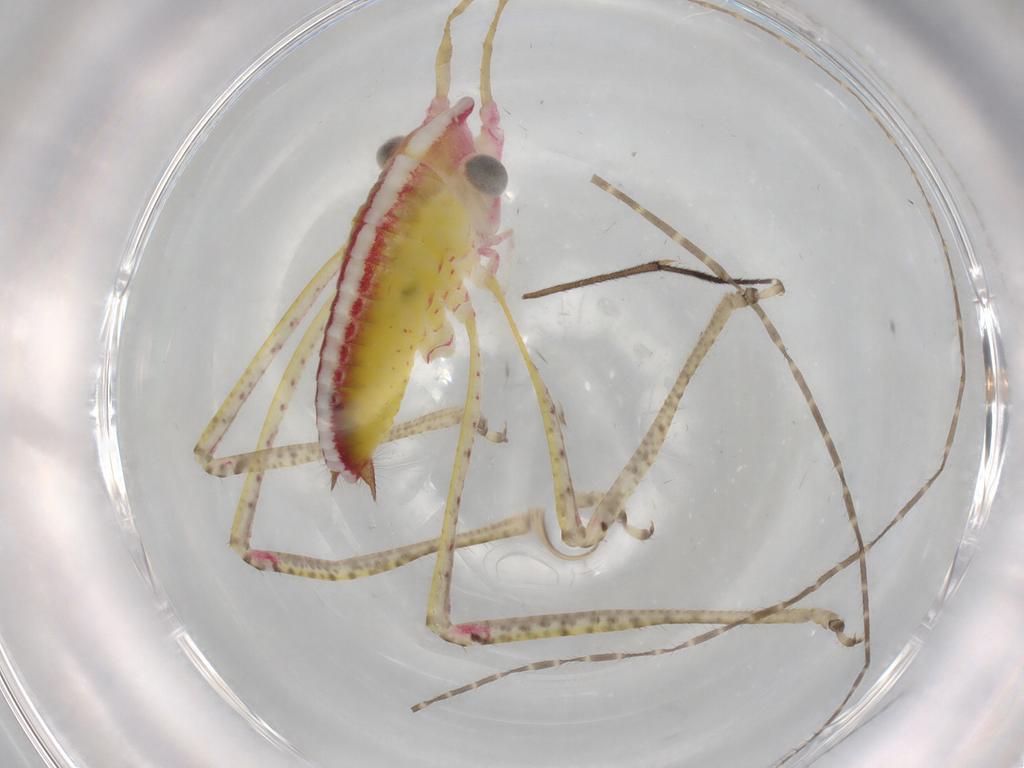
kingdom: Animalia
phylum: Arthropoda
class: Insecta
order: Orthoptera
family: Tettigoniidae
